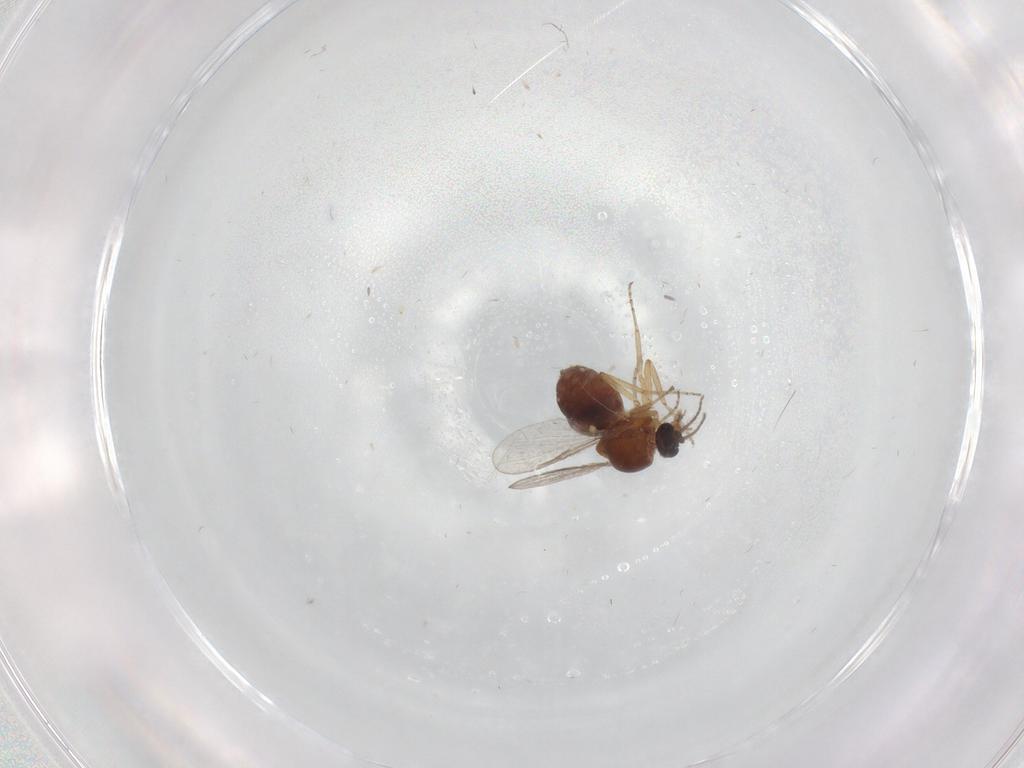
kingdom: Animalia
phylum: Arthropoda
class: Insecta
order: Diptera
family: Ceratopogonidae
